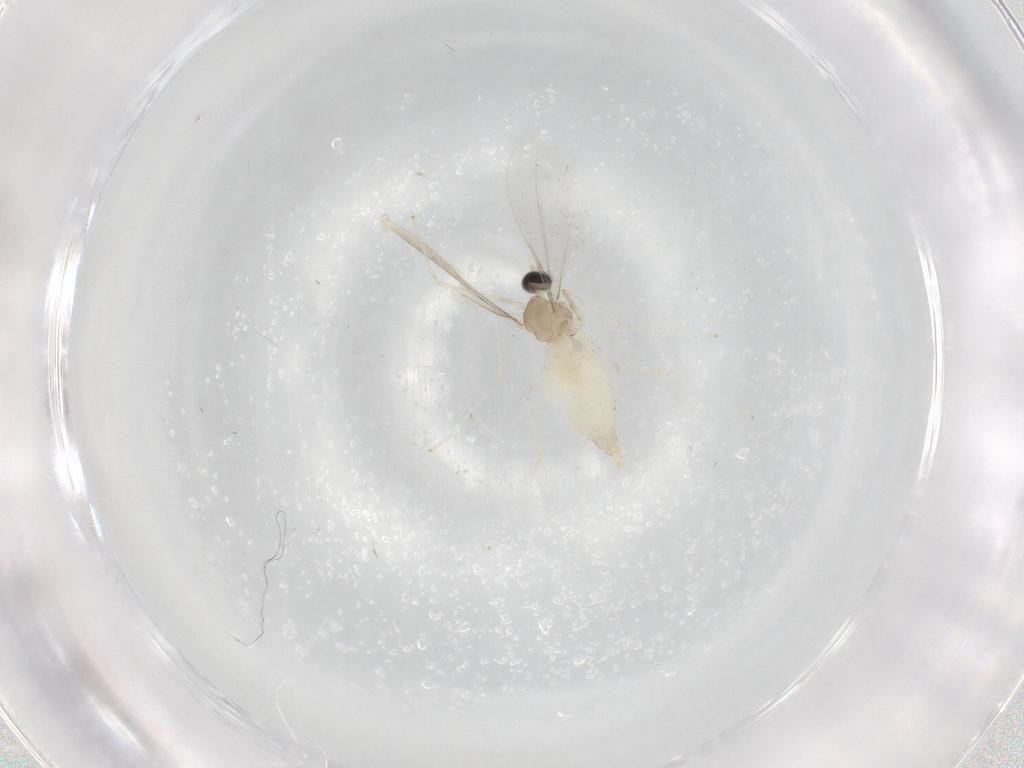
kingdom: Animalia
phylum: Arthropoda
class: Insecta
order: Diptera
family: Cecidomyiidae
